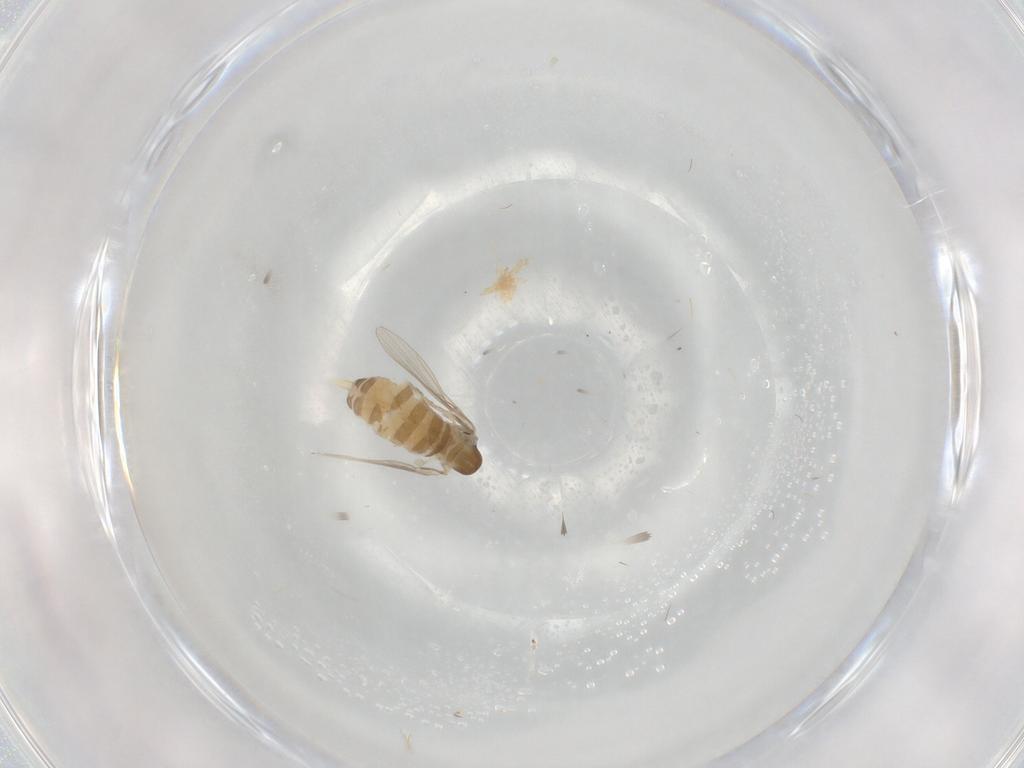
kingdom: Animalia
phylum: Arthropoda
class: Insecta
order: Diptera
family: Psychodidae
